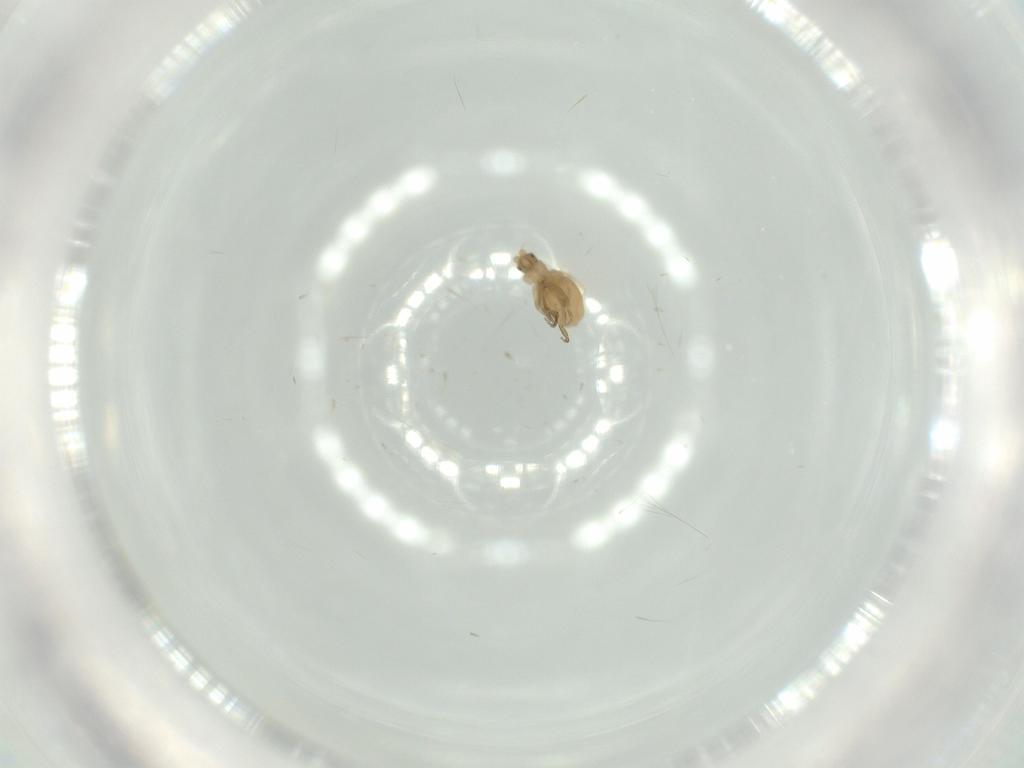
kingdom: Animalia
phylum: Arthropoda
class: Insecta
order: Diptera
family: Phoridae
